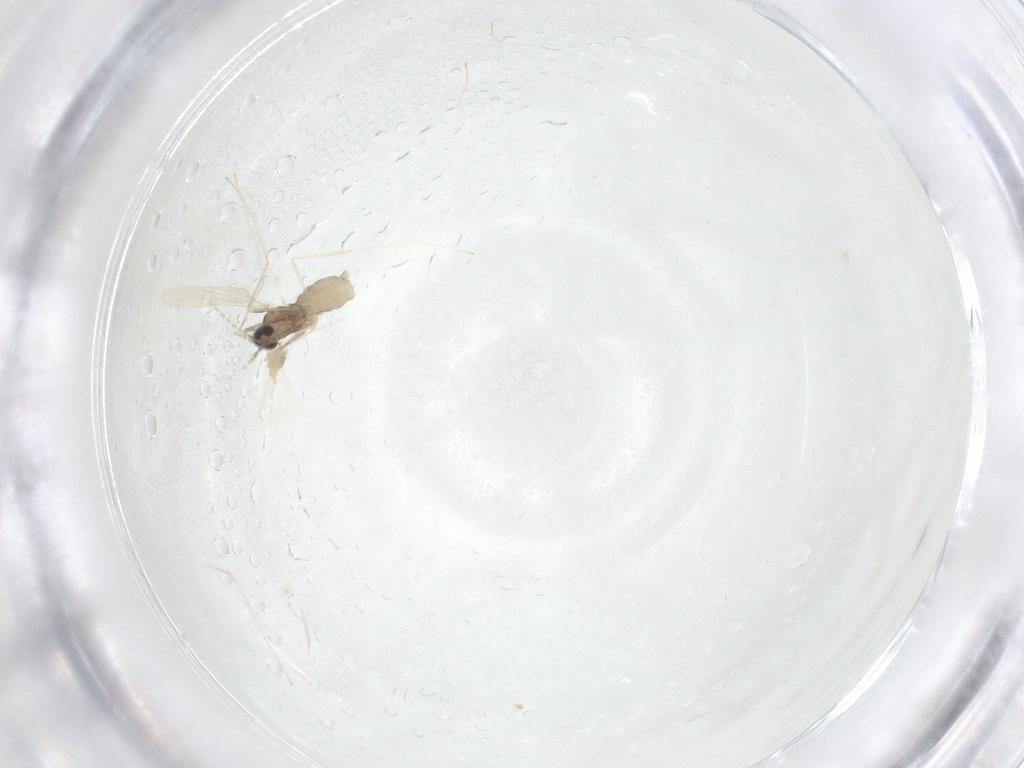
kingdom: Animalia
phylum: Arthropoda
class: Insecta
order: Diptera
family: Cecidomyiidae
